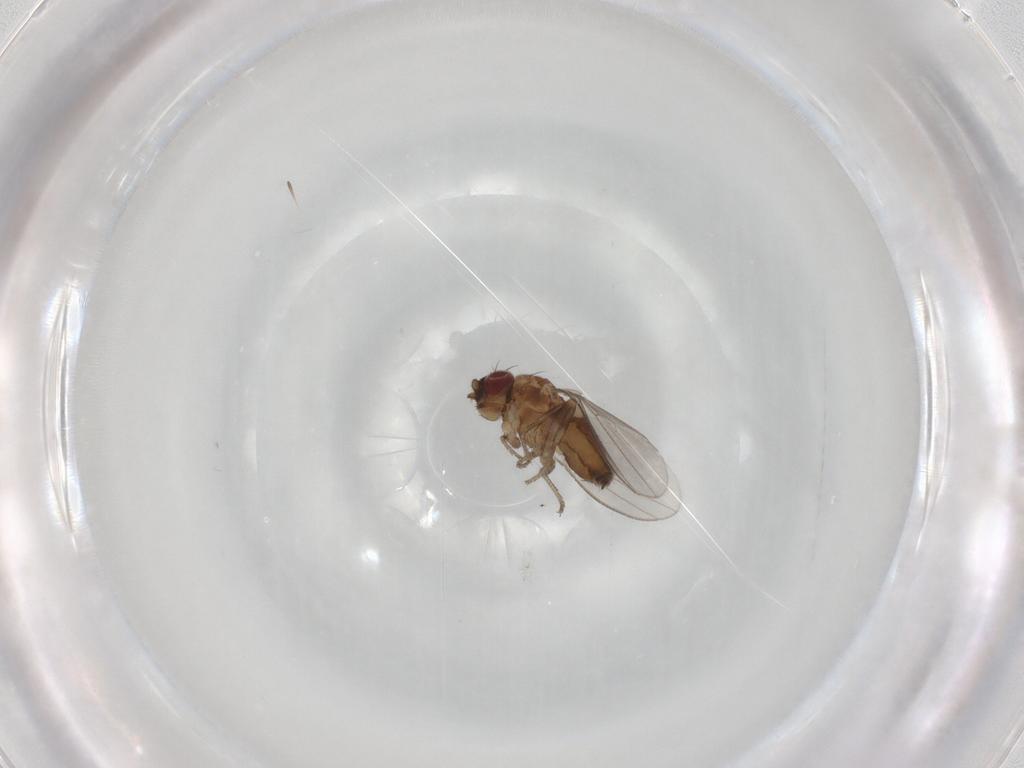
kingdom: Animalia
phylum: Arthropoda
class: Insecta
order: Diptera
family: Milichiidae
